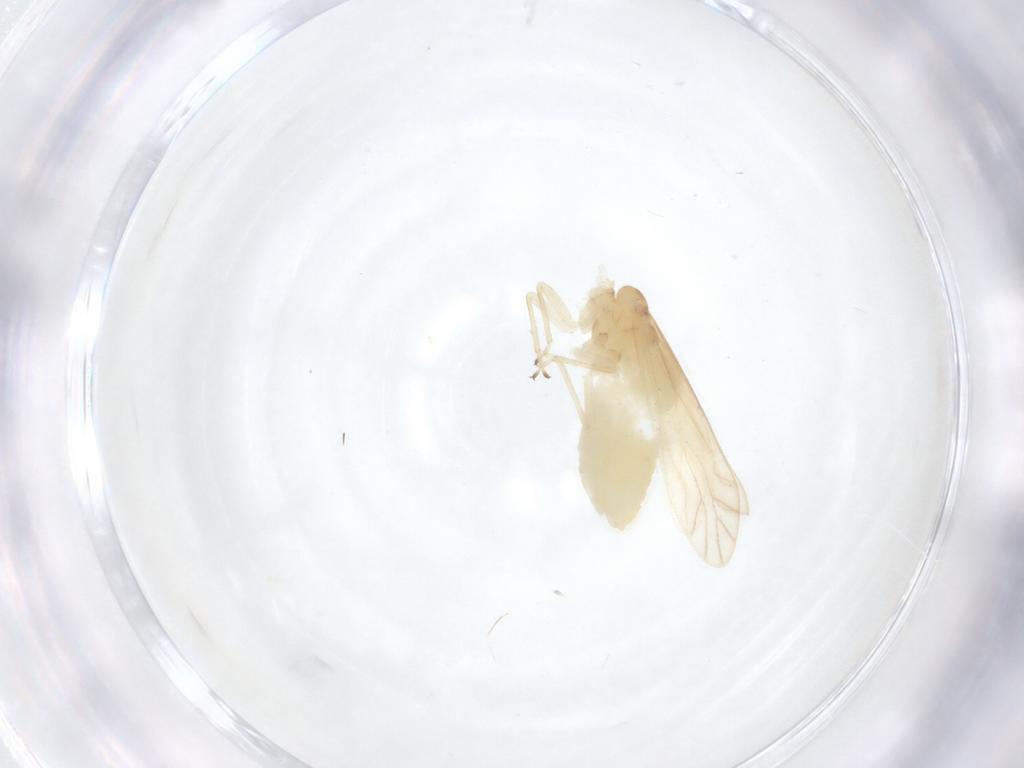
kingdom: Animalia
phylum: Arthropoda
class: Insecta
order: Psocodea
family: Caeciliusidae
